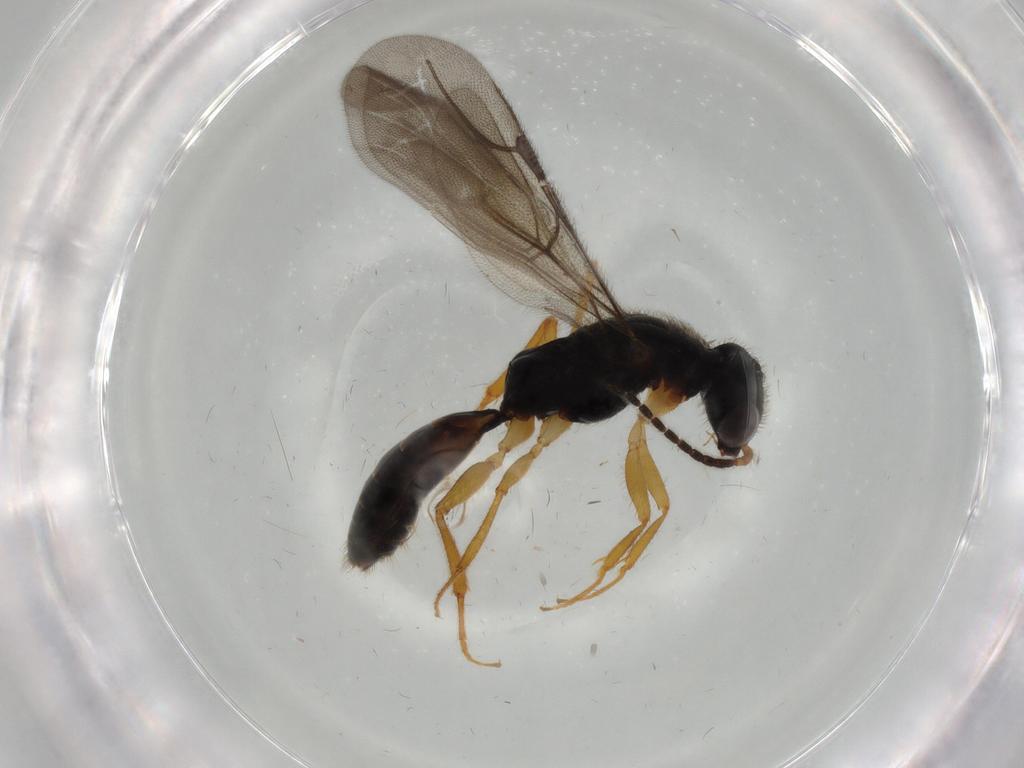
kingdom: Animalia
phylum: Arthropoda
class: Insecta
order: Hymenoptera
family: Bethylidae
